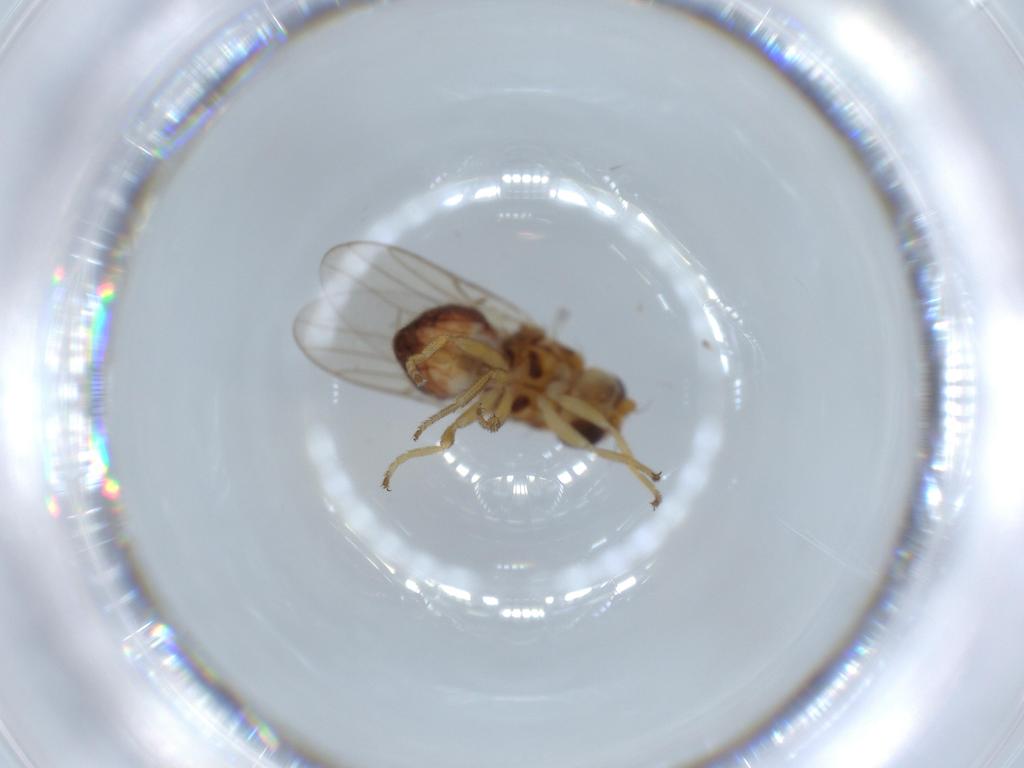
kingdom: Animalia
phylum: Arthropoda
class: Insecta
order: Diptera
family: Chloropidae
